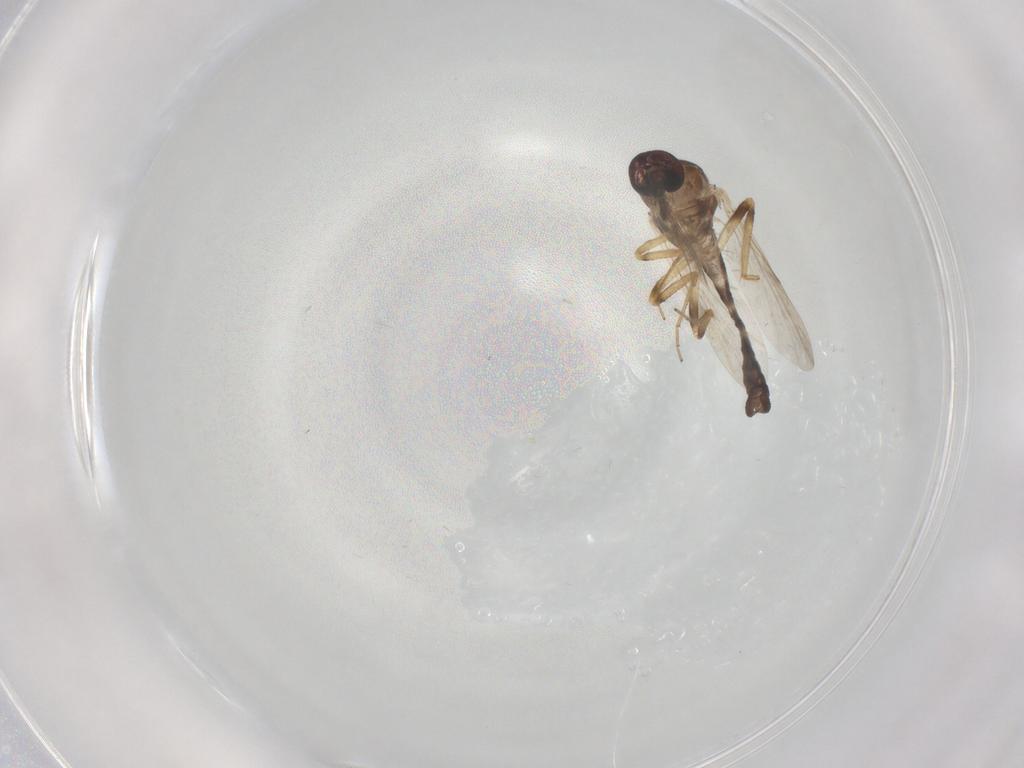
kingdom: Animalia
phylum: Arthropoda
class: Insecta
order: Diptera
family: Ceratopogonidae
